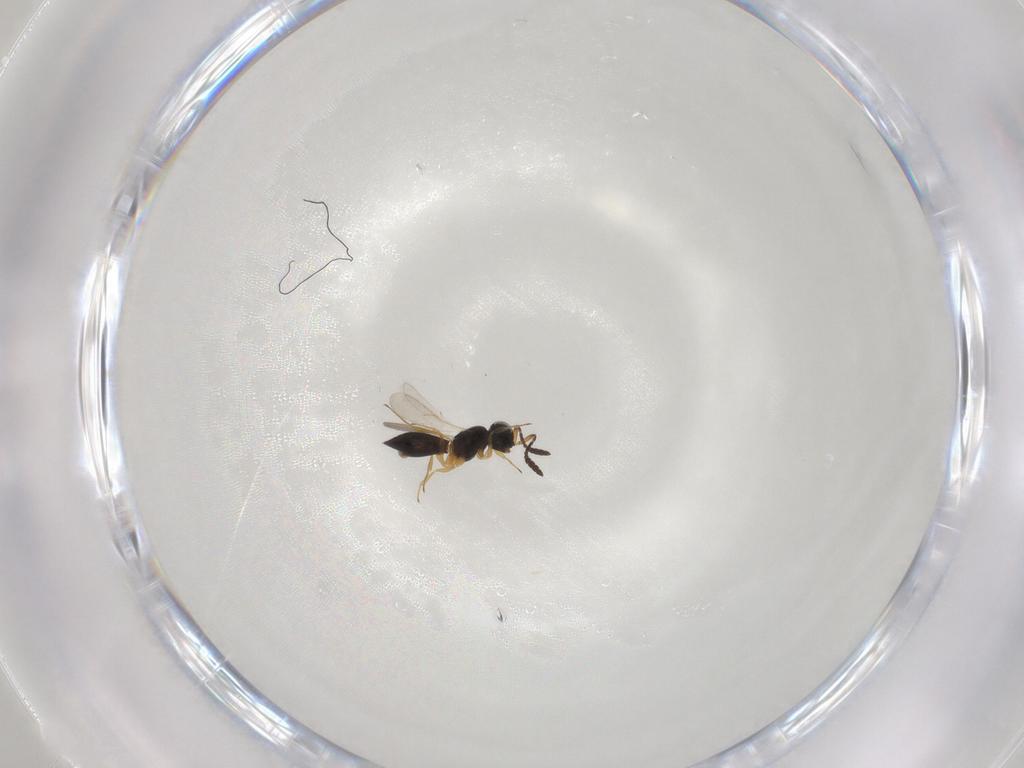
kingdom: Animalia
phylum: Arthropoda
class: Insecta
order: Hymenoptera
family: Scelionidae
